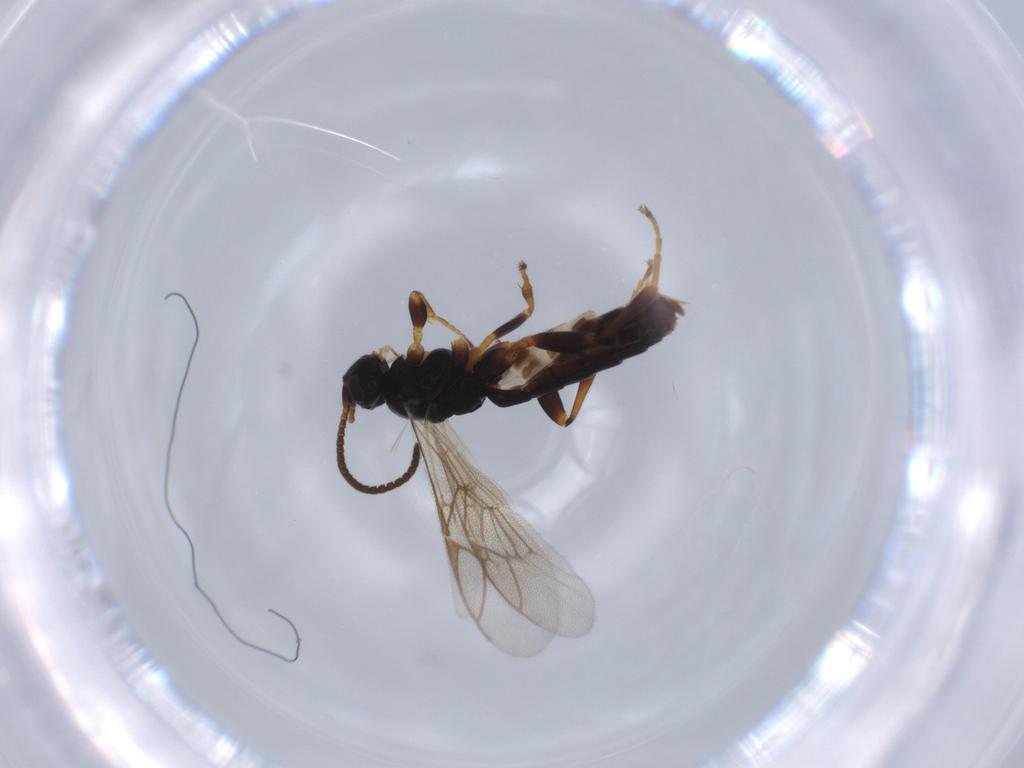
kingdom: Animalia
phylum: Arthropoda
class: Insecta
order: Hymenoptera
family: Ichneumonidae
